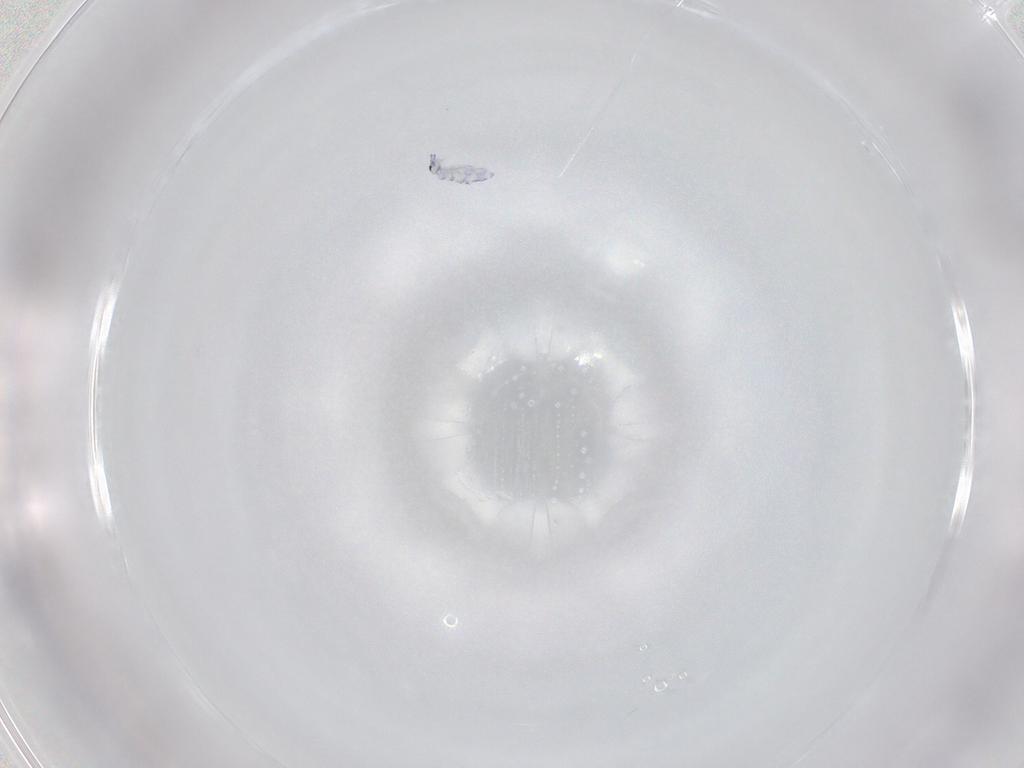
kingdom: Animalia
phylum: Arthropoda
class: Collembola
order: Entomobryomorpha
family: Entomobryidae
